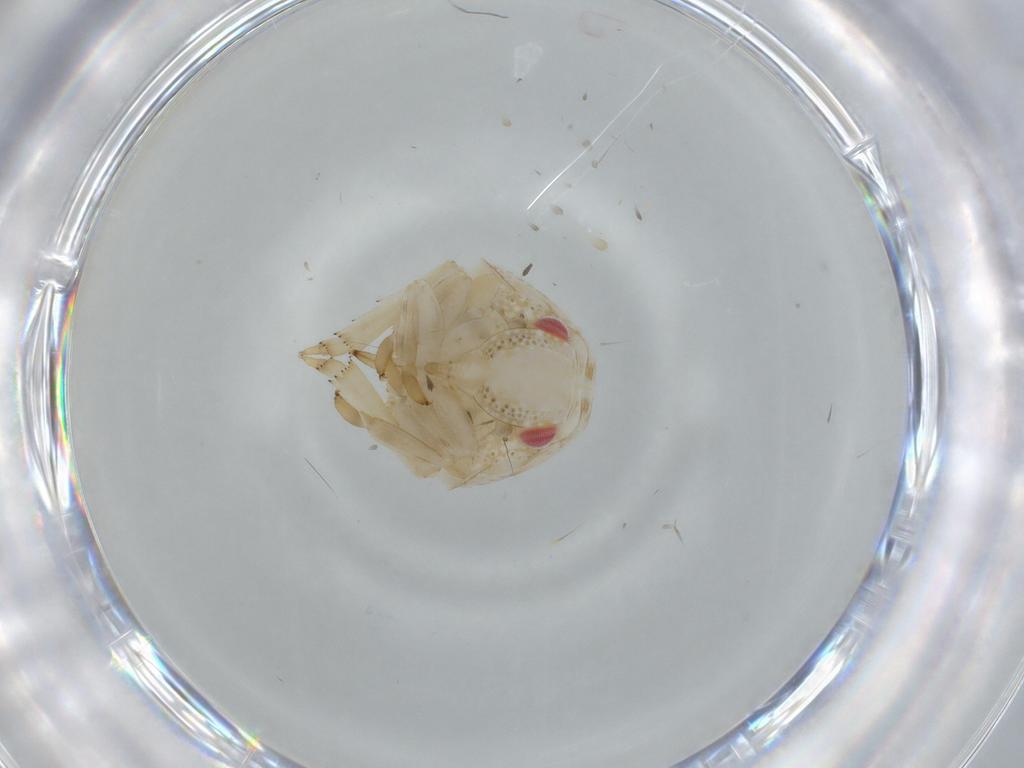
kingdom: Animalia
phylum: Arthropoda
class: Insecta
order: Hemiptera
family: Acanaloniidae
